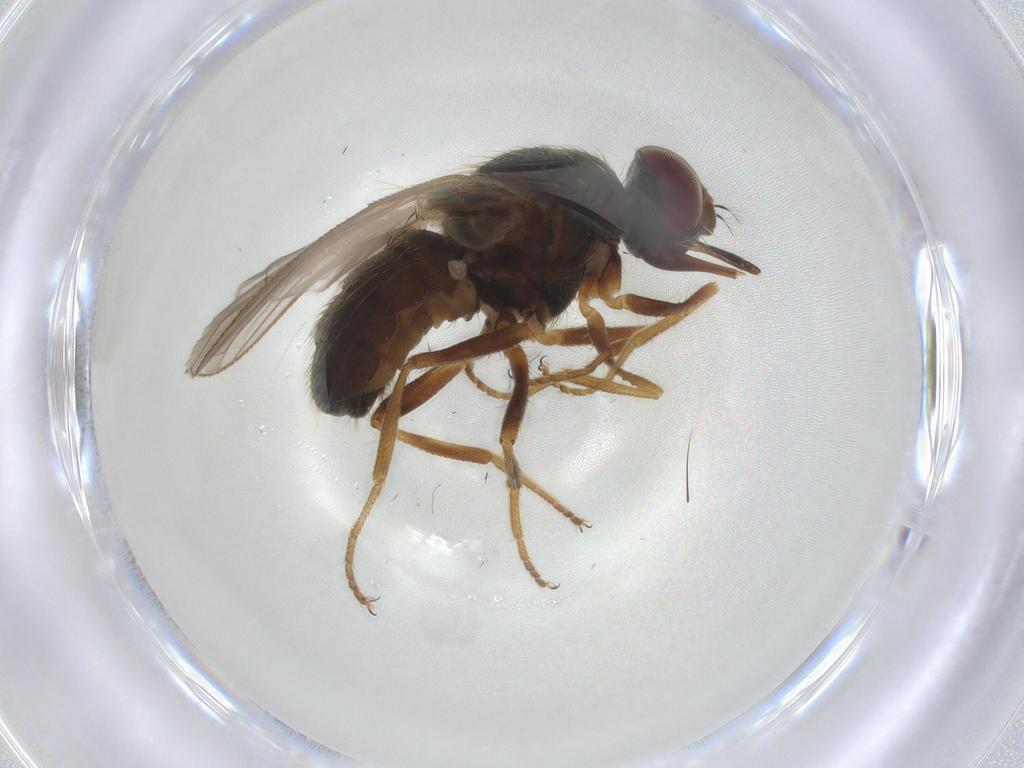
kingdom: Animalia
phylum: Arthropoda
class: Insecta
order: Diptera
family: Muscidae
